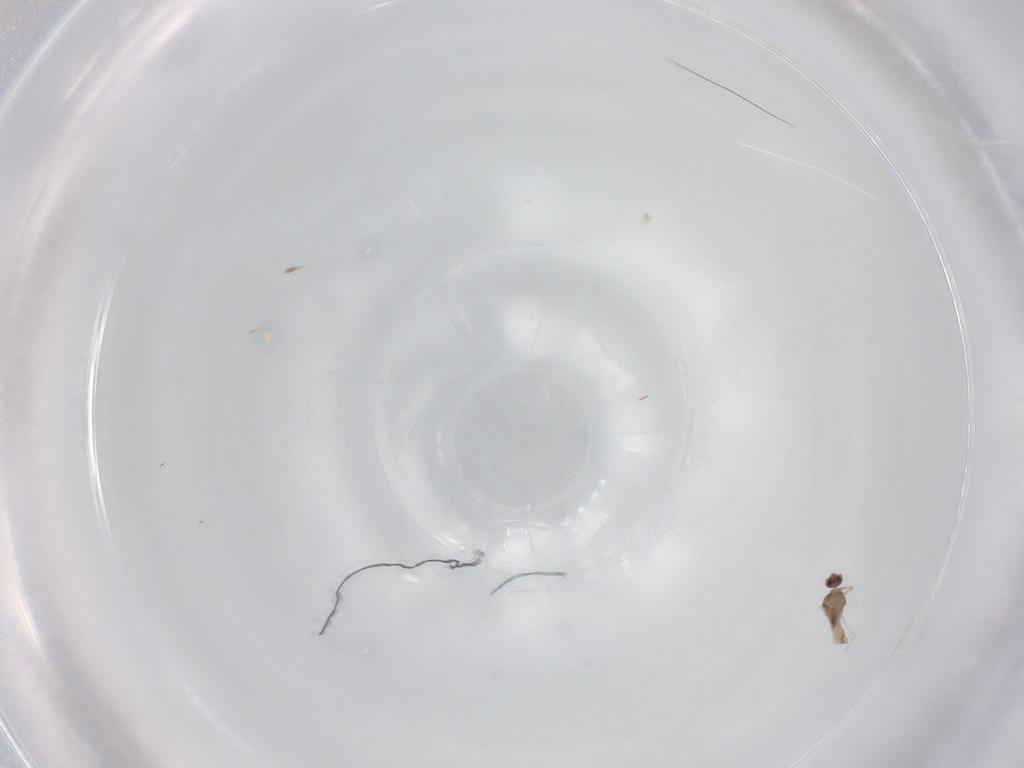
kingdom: Animalia
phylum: Arthropoda
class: Insecta
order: Diptera
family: Cecidomyiidae
